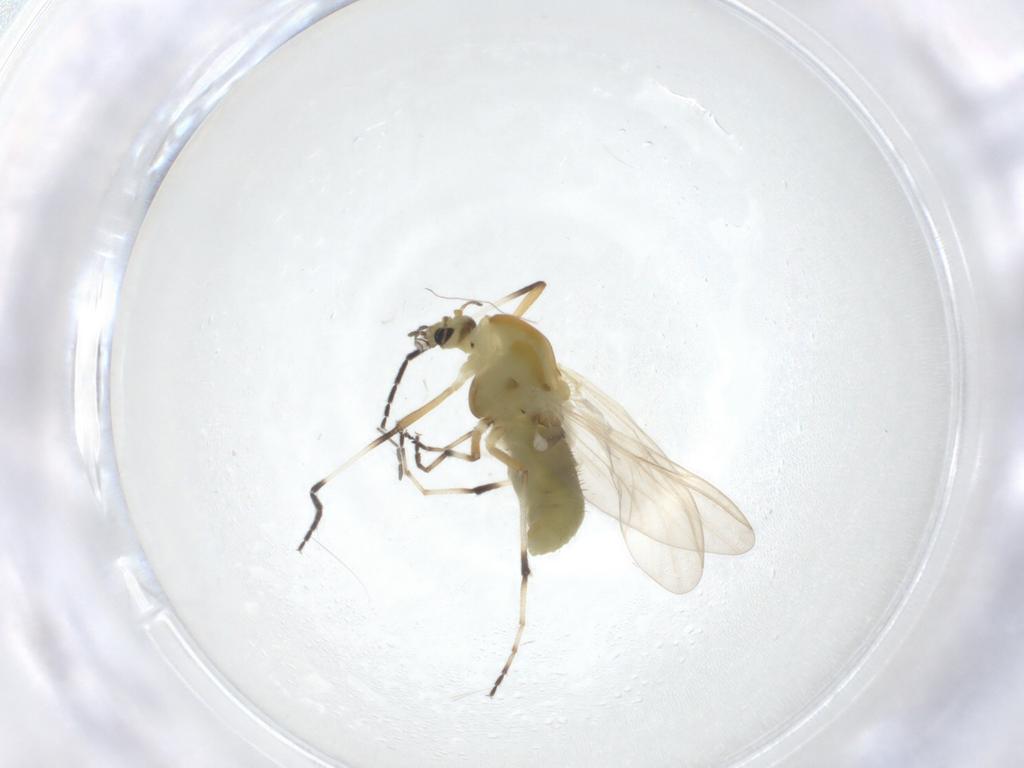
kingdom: Animalia
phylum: Arthropoda
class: Insecta
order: Diptera
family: Chironomidae
